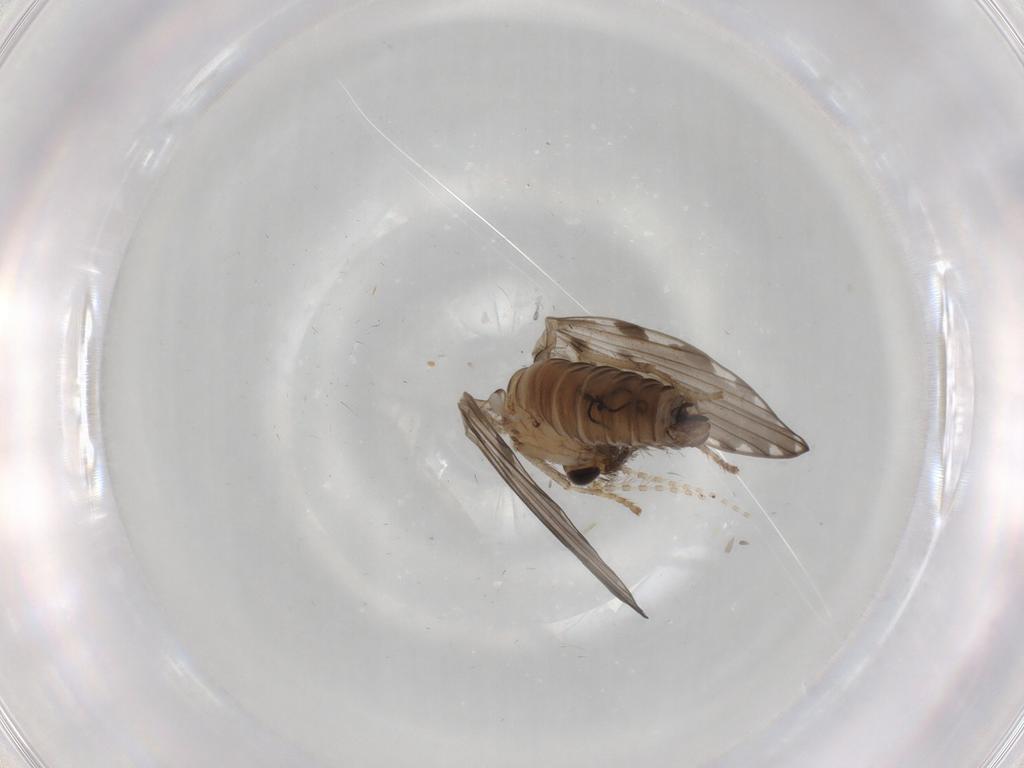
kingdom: Animalia
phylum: Arthropoda
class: Insecta
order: Diptera
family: Psychodidae
